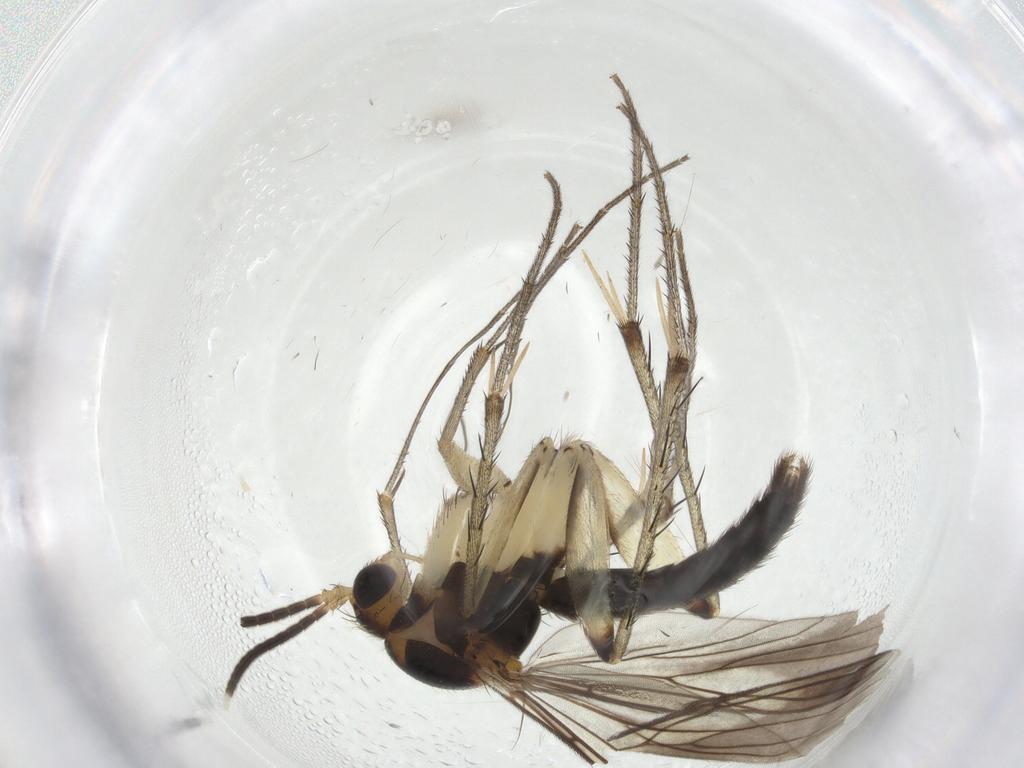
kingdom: Animalia
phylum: Arthropoda
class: Insecta
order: Diptera
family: Mycetophilidae
